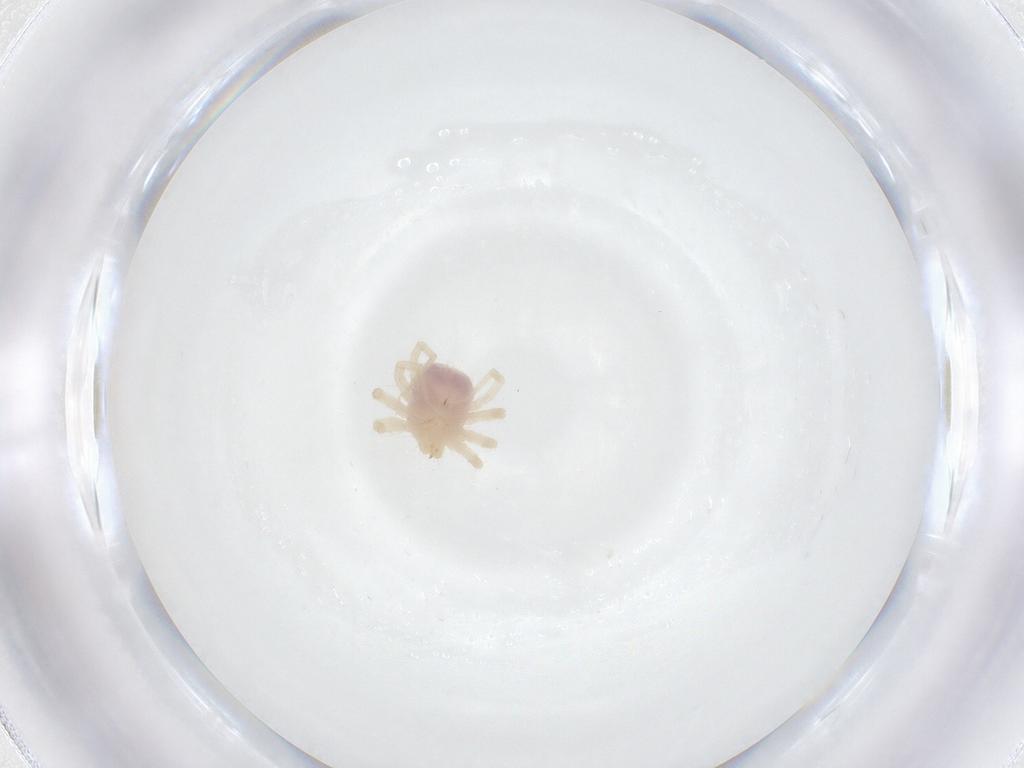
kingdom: Animalia
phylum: Arthropoda
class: Arachnida
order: Trombidiformes
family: Anystidae
